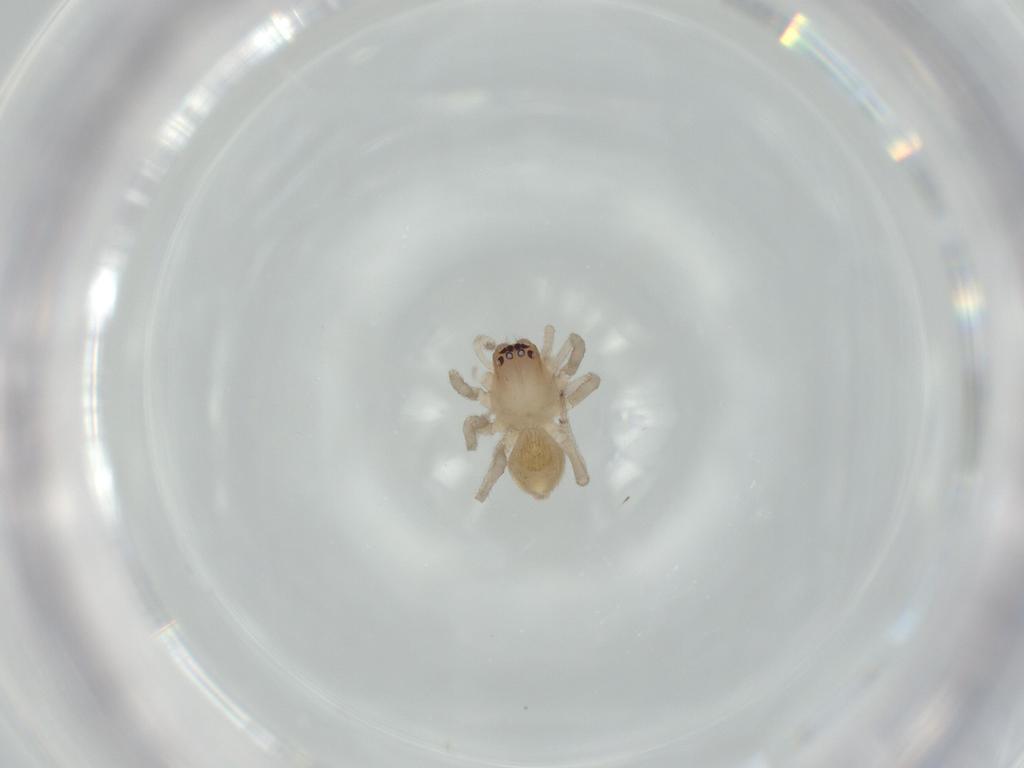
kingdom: Animalia
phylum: Arthropoda
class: Arachnida
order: Araneae
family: Trachelidae
